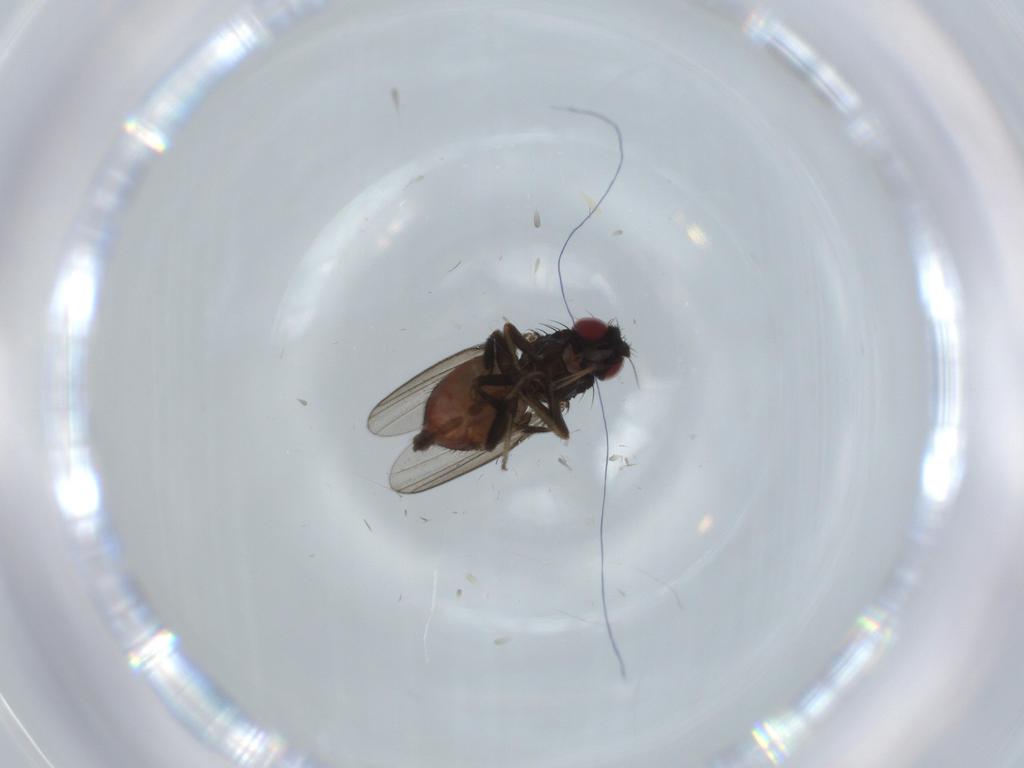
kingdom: Animalia
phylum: Arthropoda
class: Insecta
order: Diptera
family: Milichiidae
